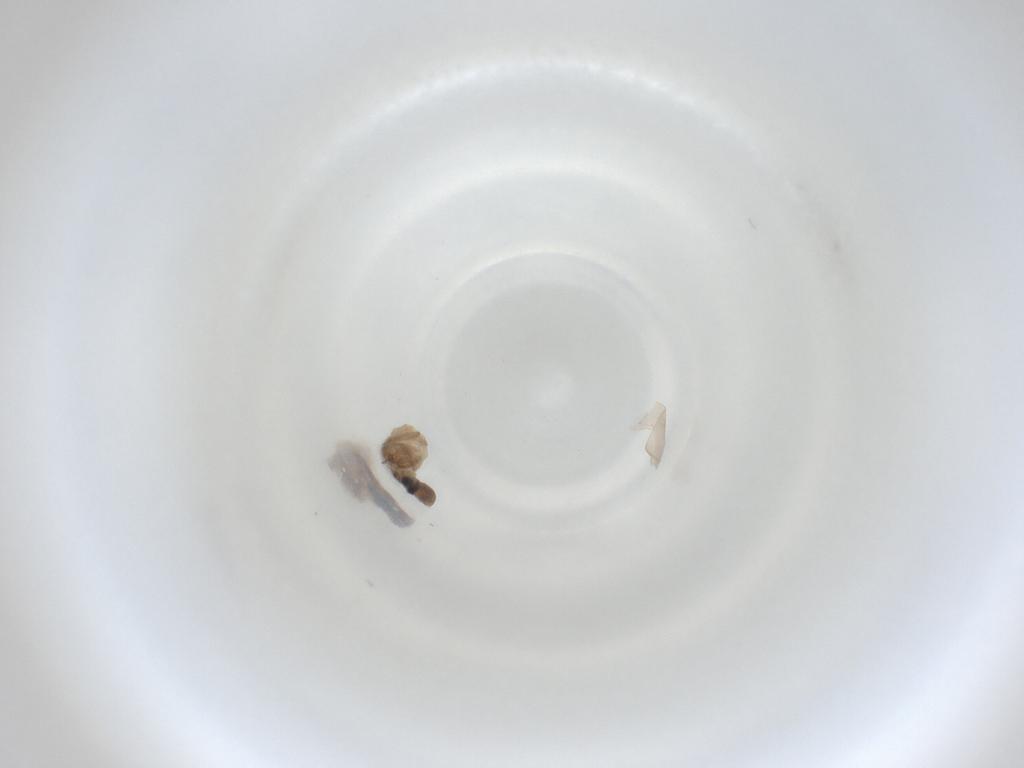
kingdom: Animalia
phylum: Arthropoda
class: Insecta
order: Diptera
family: Cecidomyiidae
